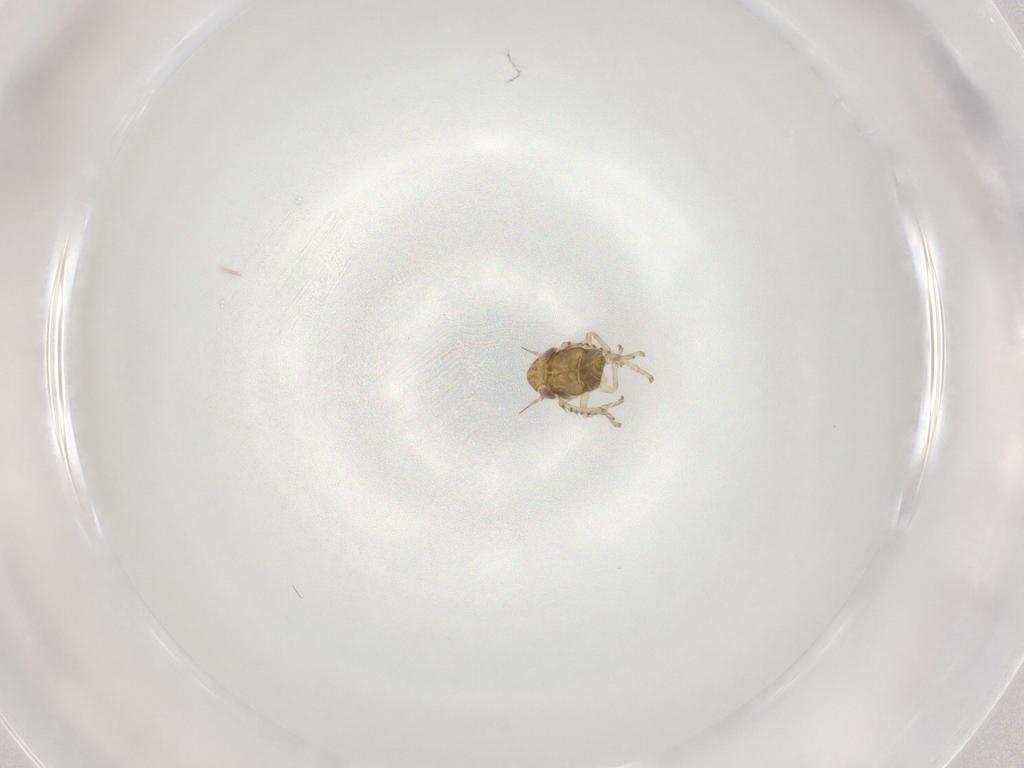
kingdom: Animalia
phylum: Arthropoda
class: Insecta
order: Hemiptera
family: Cicadellidae
